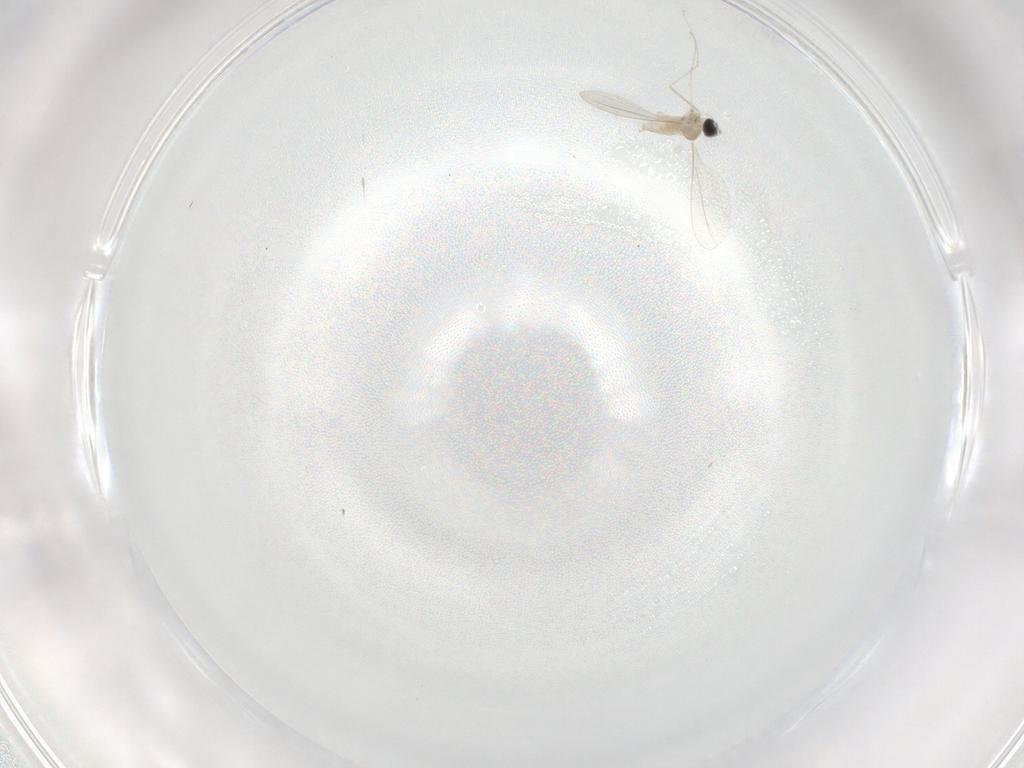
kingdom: Animalia
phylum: Arthropoda
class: Insecta
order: Diptera
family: Cecidomyiidae
